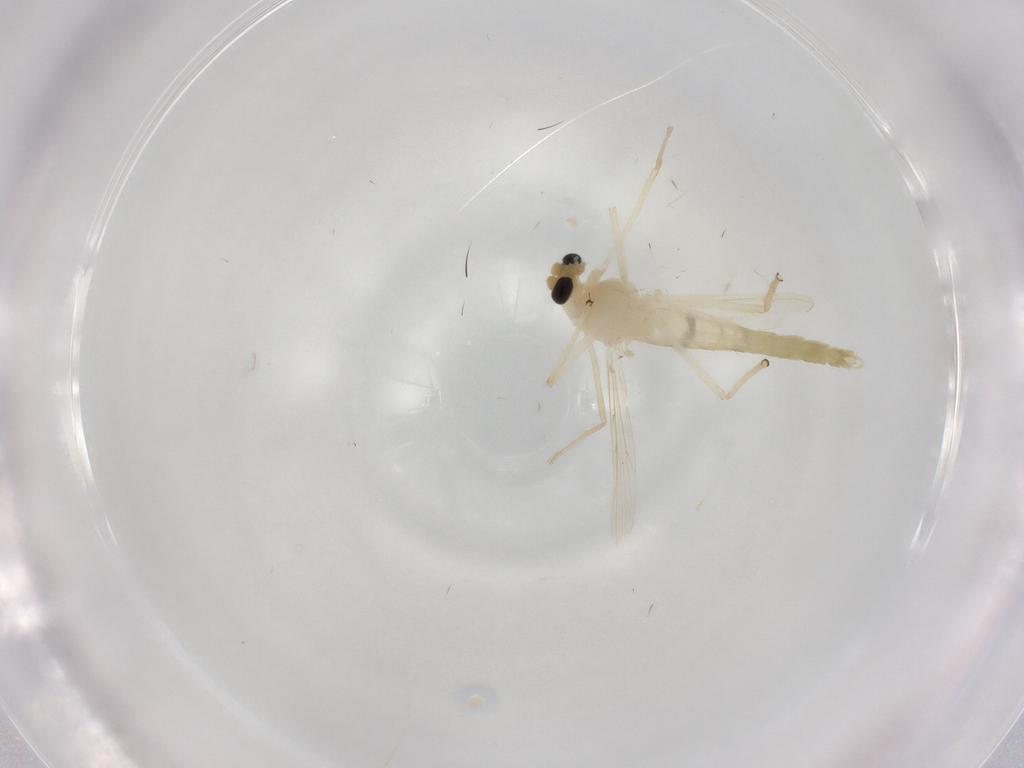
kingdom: Animalia
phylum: Arthropoda
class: Insecta
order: Diptera
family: Chironomidae
